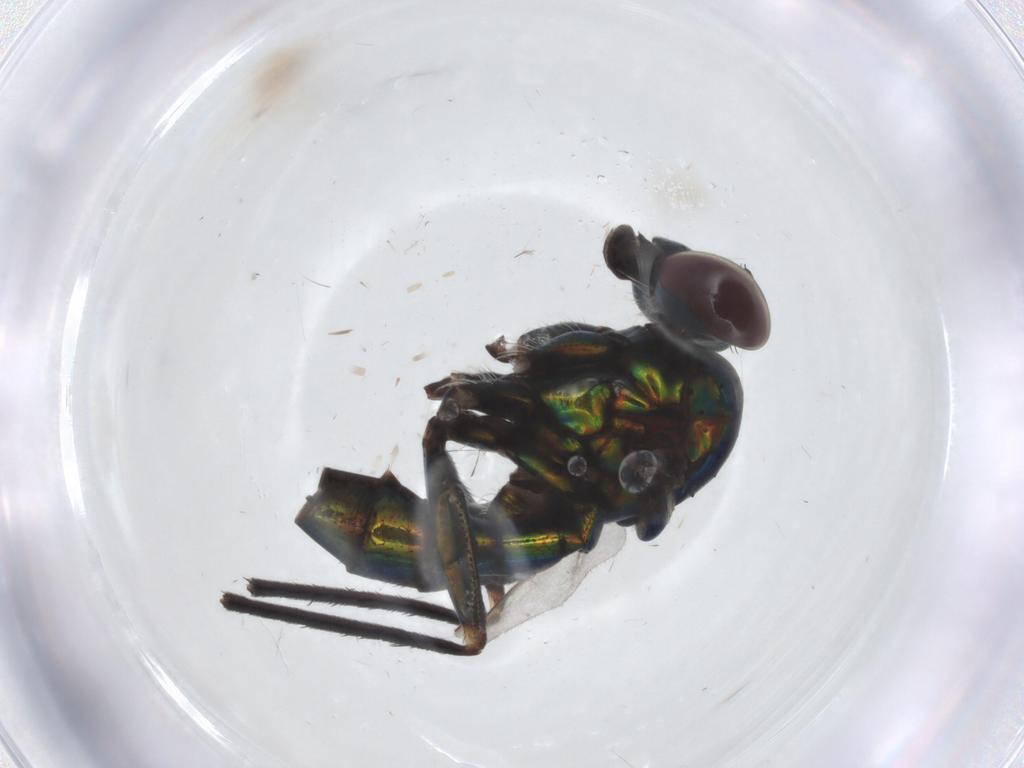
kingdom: Animalia
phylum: Arthropoda
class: Insecta
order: Diptera
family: Dolichopodidae
